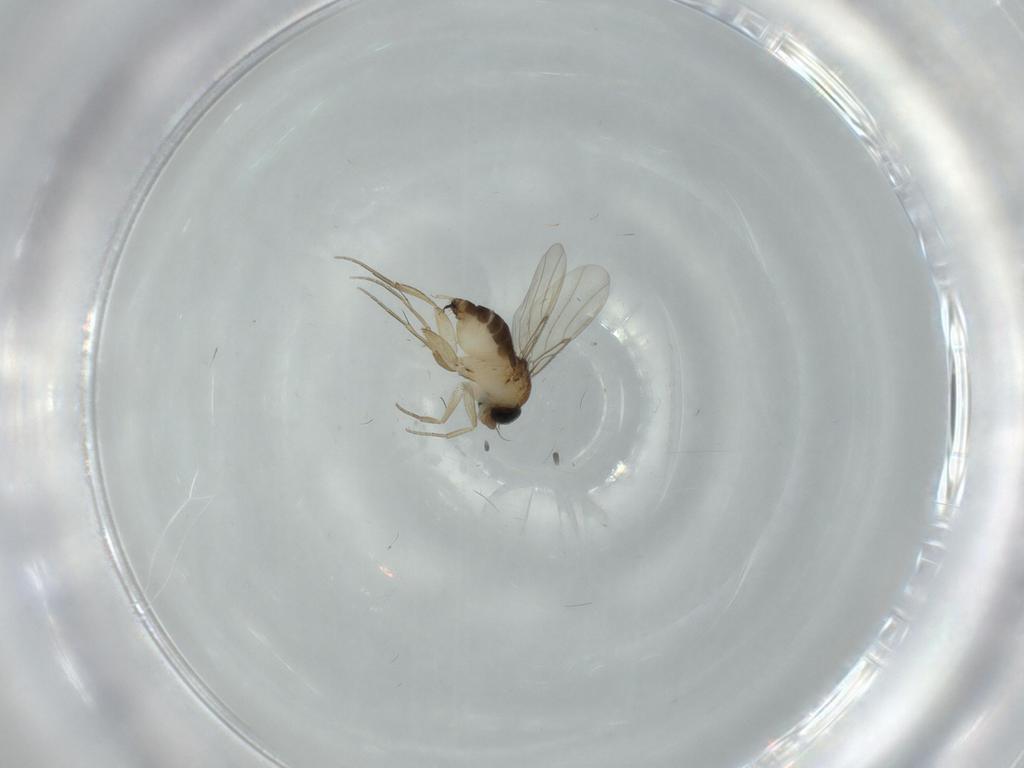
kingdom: Animalia
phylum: Arthropoda
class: Insecta
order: Diptera
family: Phoridae
